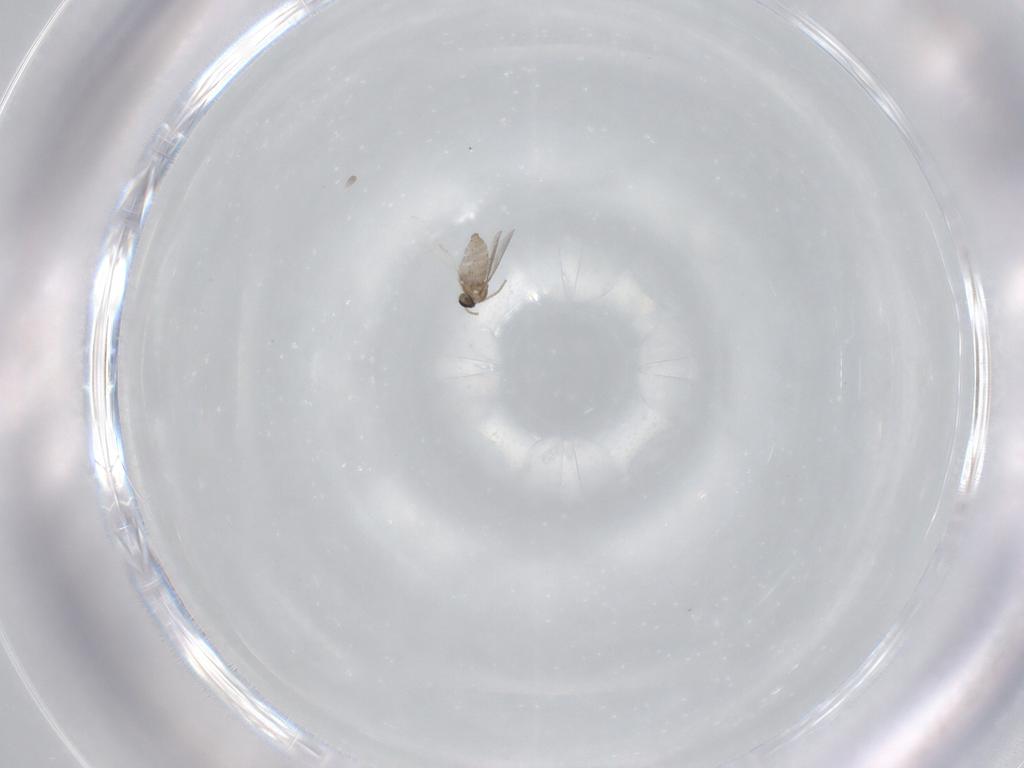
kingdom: Animalia
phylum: Arthropoda
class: Insecta
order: Diptera
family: Cecidomyiidae
